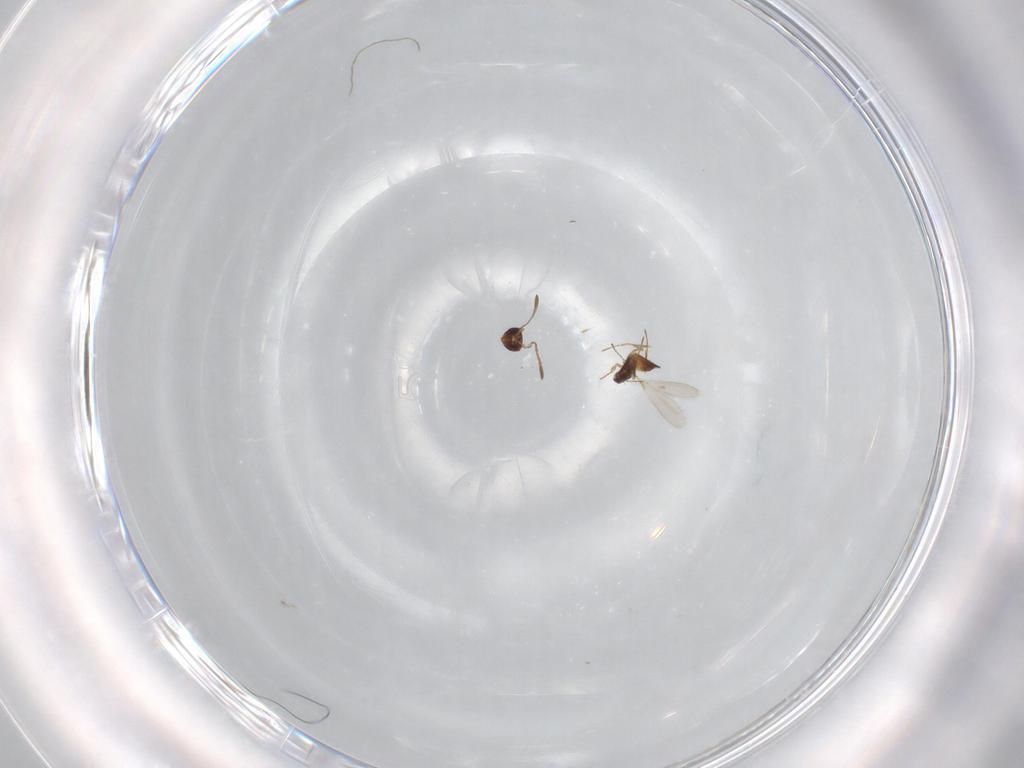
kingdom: Animalia
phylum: Arthropoda
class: Insecta
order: Hymenoptera
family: Mymaridae
